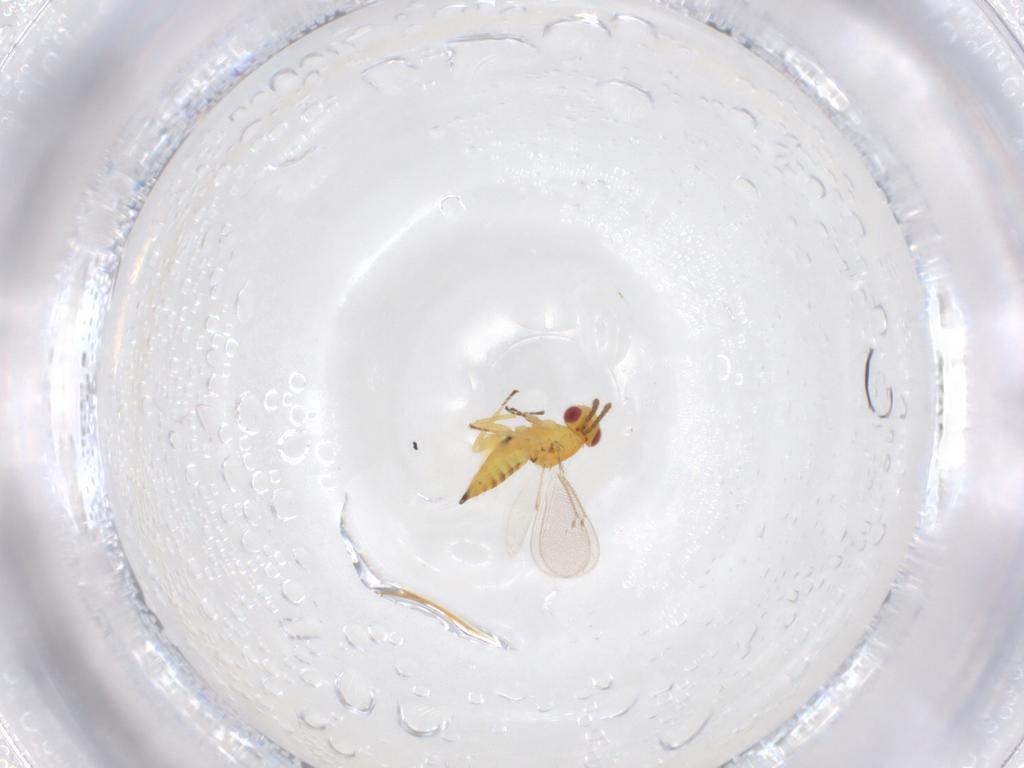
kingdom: Animalia
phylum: Arthropoda
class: Insecta
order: Hymenoptera
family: Eulophidae
